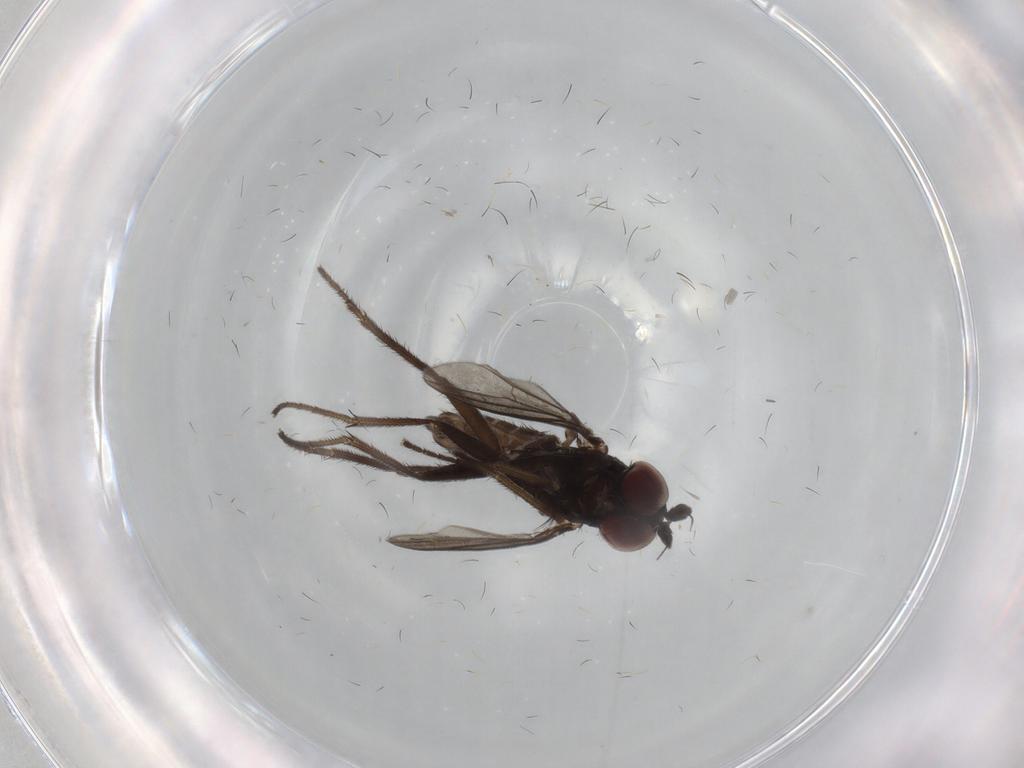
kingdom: Animalia
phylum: Arthropoda
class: Insecta
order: Diptera
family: Dolichopodidae
